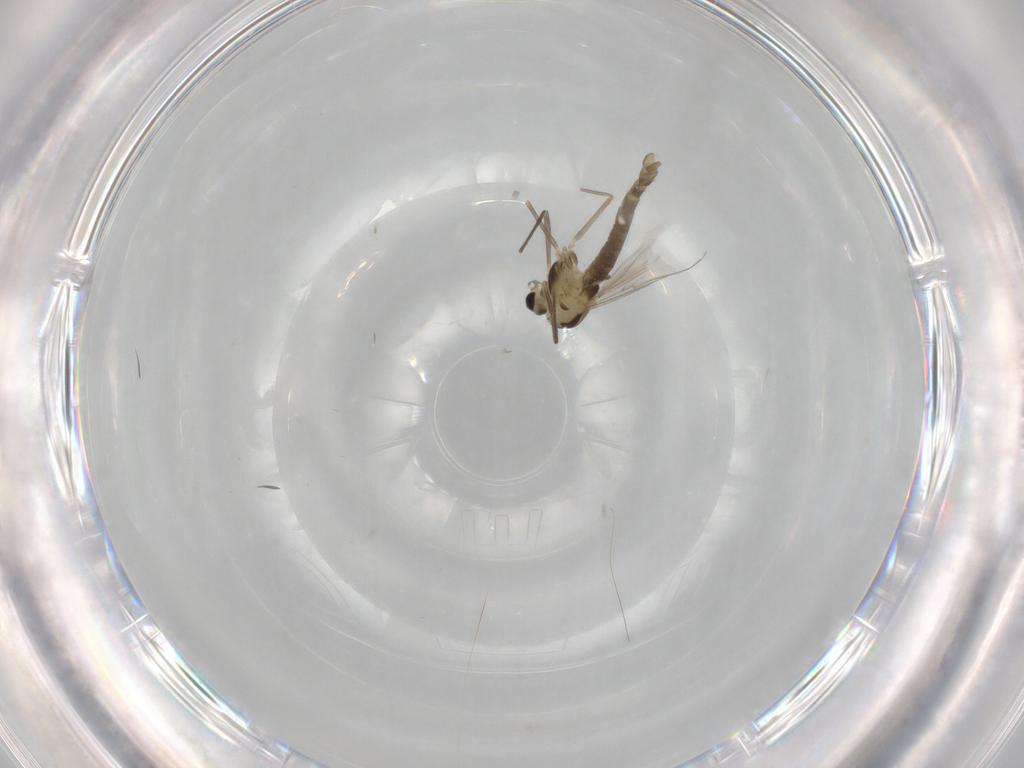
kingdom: Animalia
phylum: Arthropoda
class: Insecta
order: Diptera
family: Chironomidae
